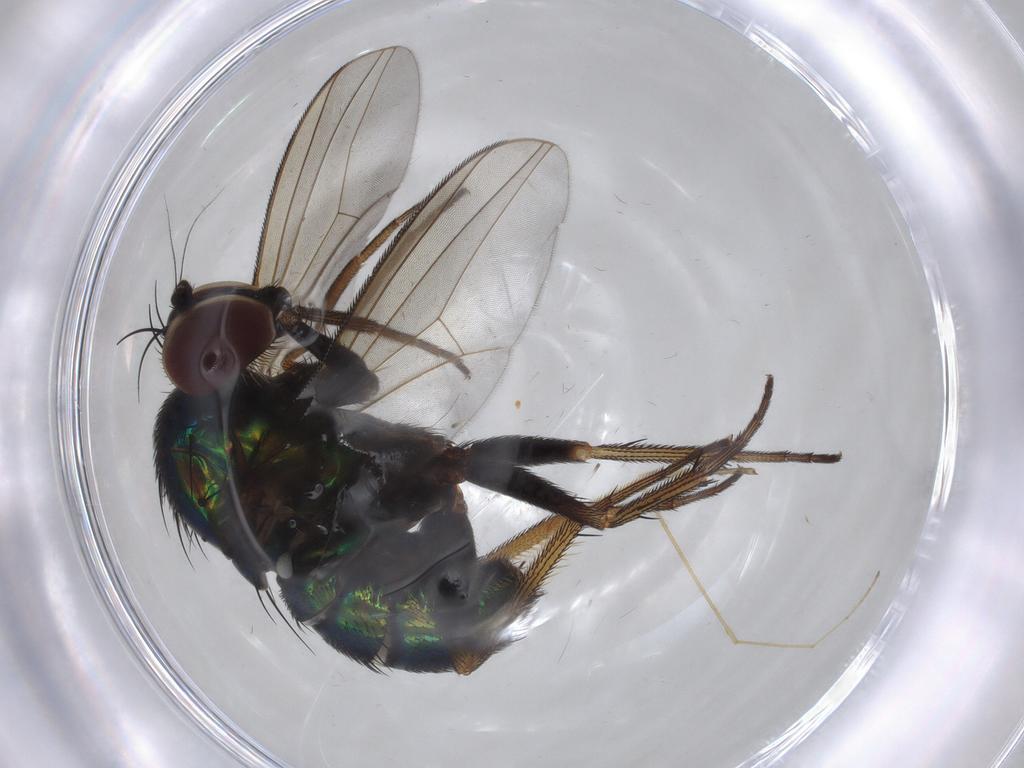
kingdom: Animalia
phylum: Arthropoda
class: Insecta
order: Diptera
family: Dolichopodidae
